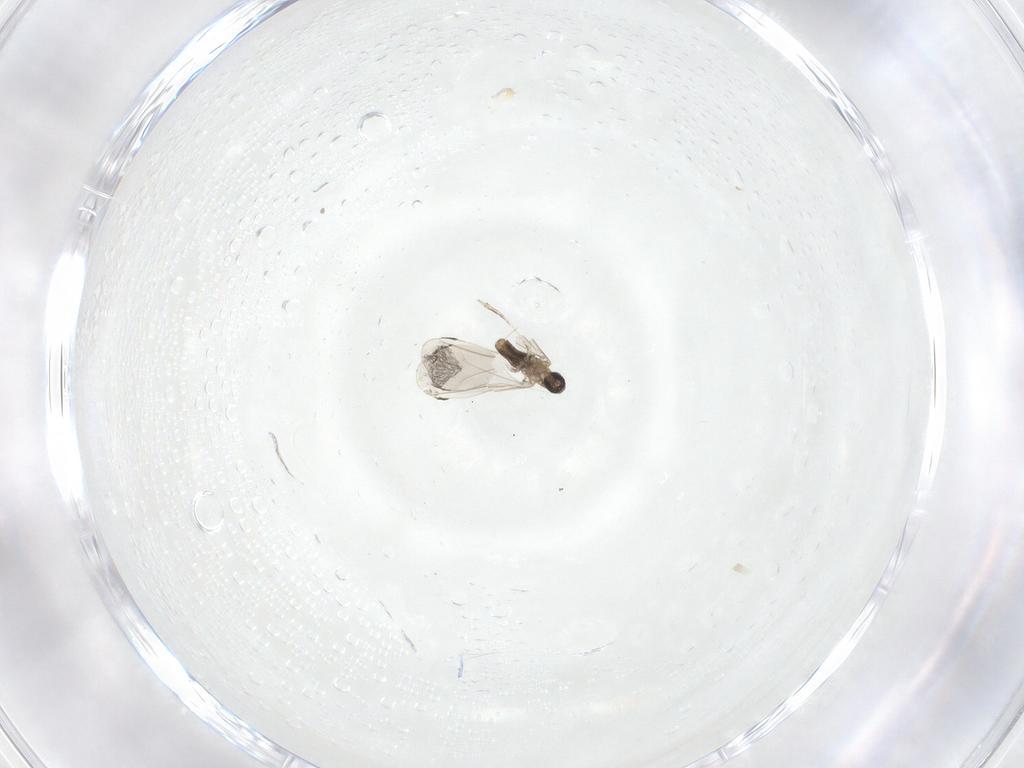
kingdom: Animalia
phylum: Arthropoda
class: Insecta
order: Diptera
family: Cecidomyiidae
